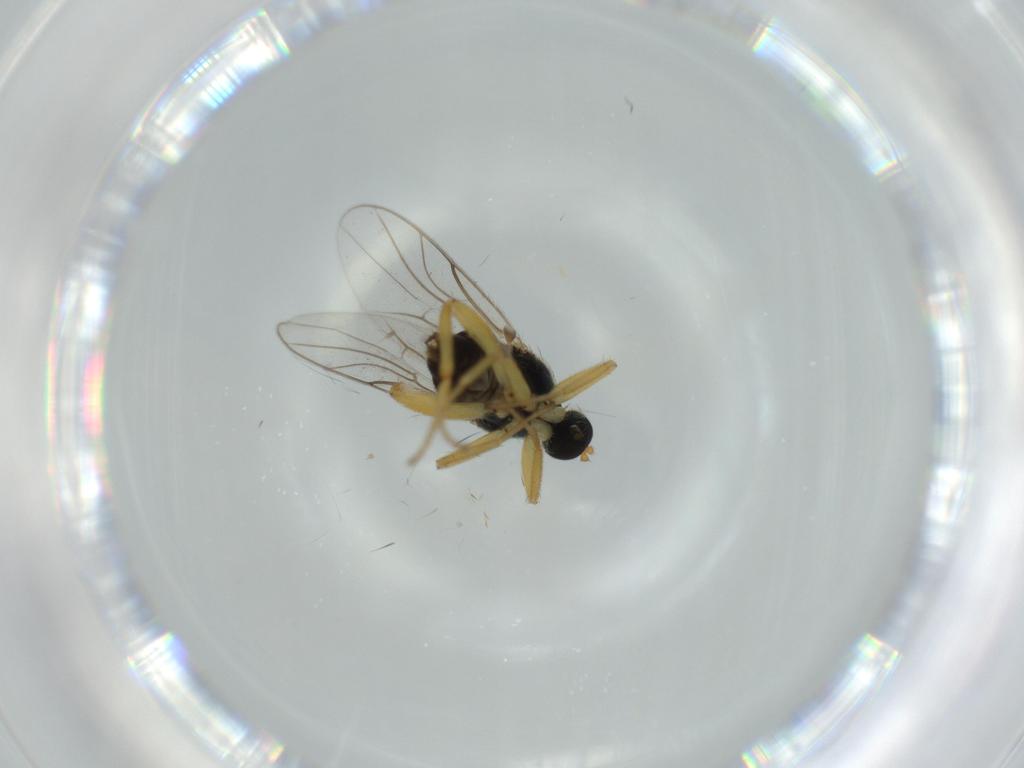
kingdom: Animalia
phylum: Arthropoda
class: Insecta
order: Diptera
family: Hybotidae
